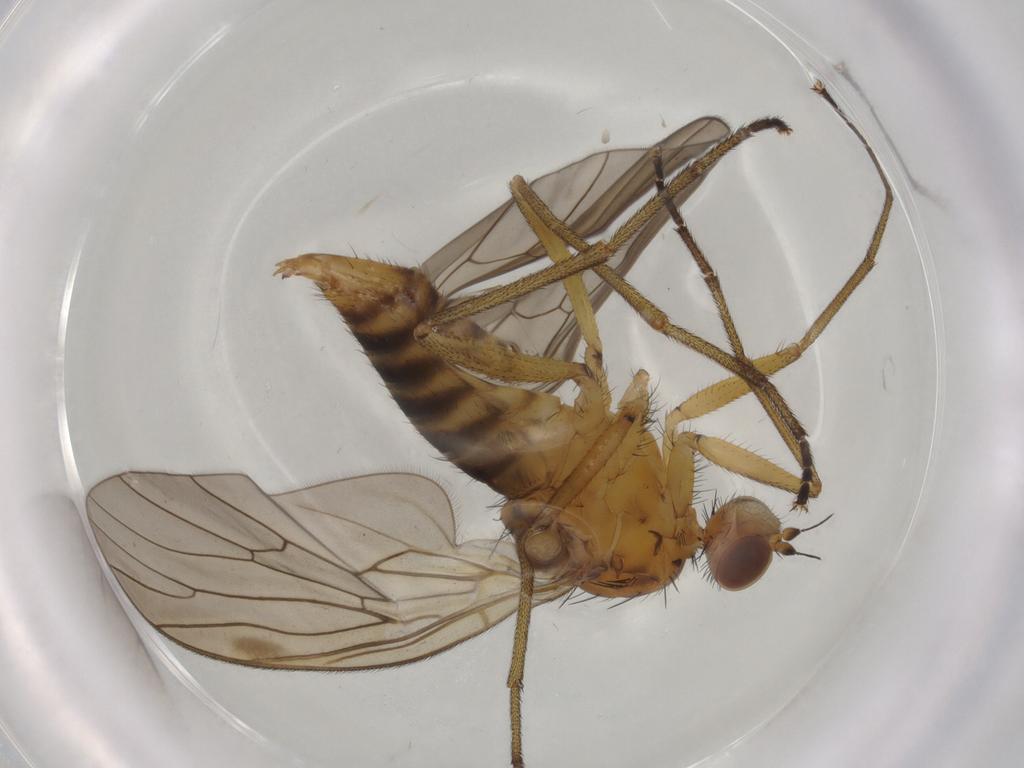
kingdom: Animalia
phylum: Arthropoda
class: Insecta
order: Diptera
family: Brachystomatidae
